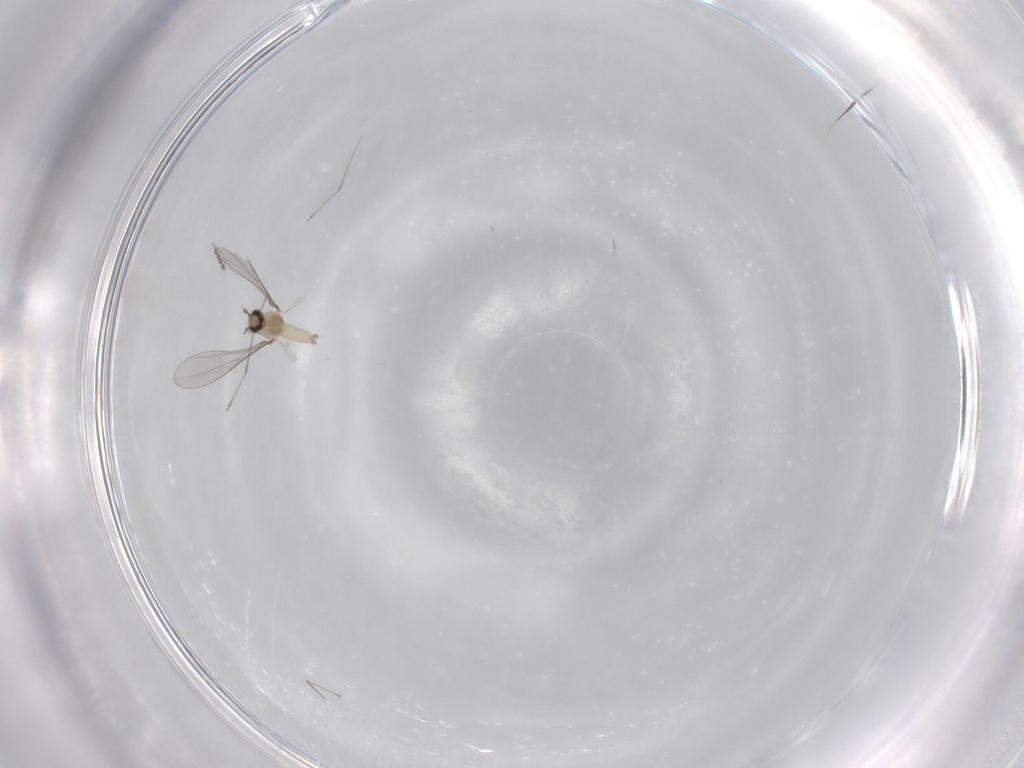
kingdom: Animalia
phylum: Arthropoda
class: Insecta
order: Diptera
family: Cecidomyiidae
